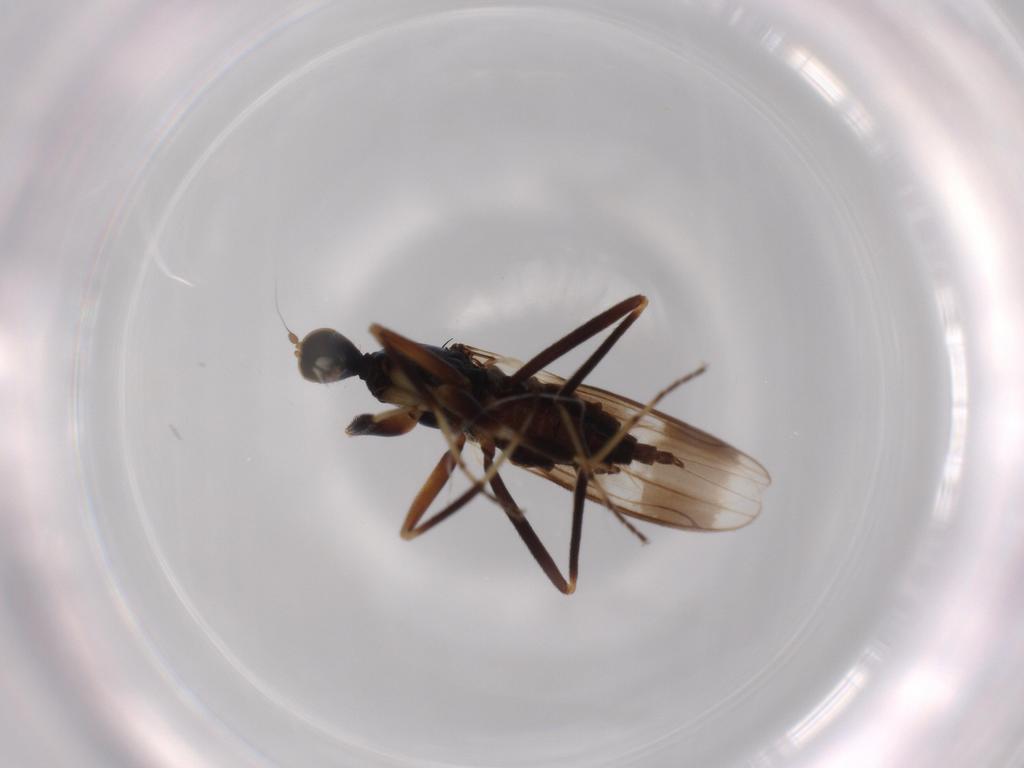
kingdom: Animalia
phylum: Arthropoda
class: Insecta
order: Diptera
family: Hybotidae
